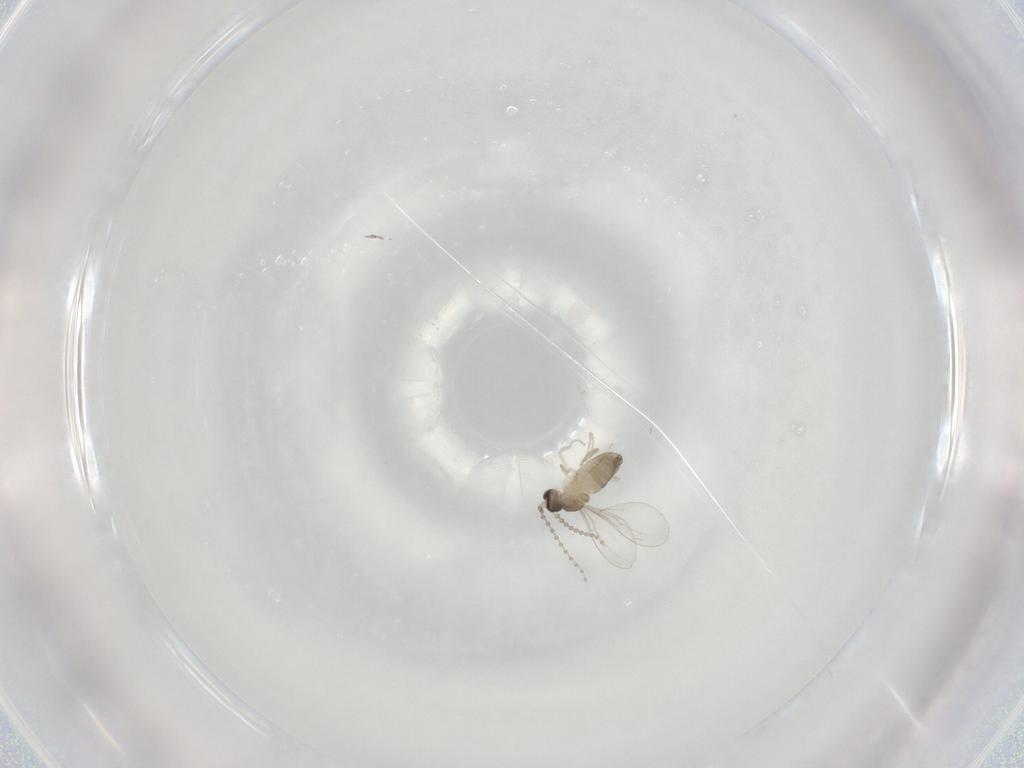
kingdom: Animalia
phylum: Arthropoda
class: Insecta
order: Diptera
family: Cecidomyiidae
